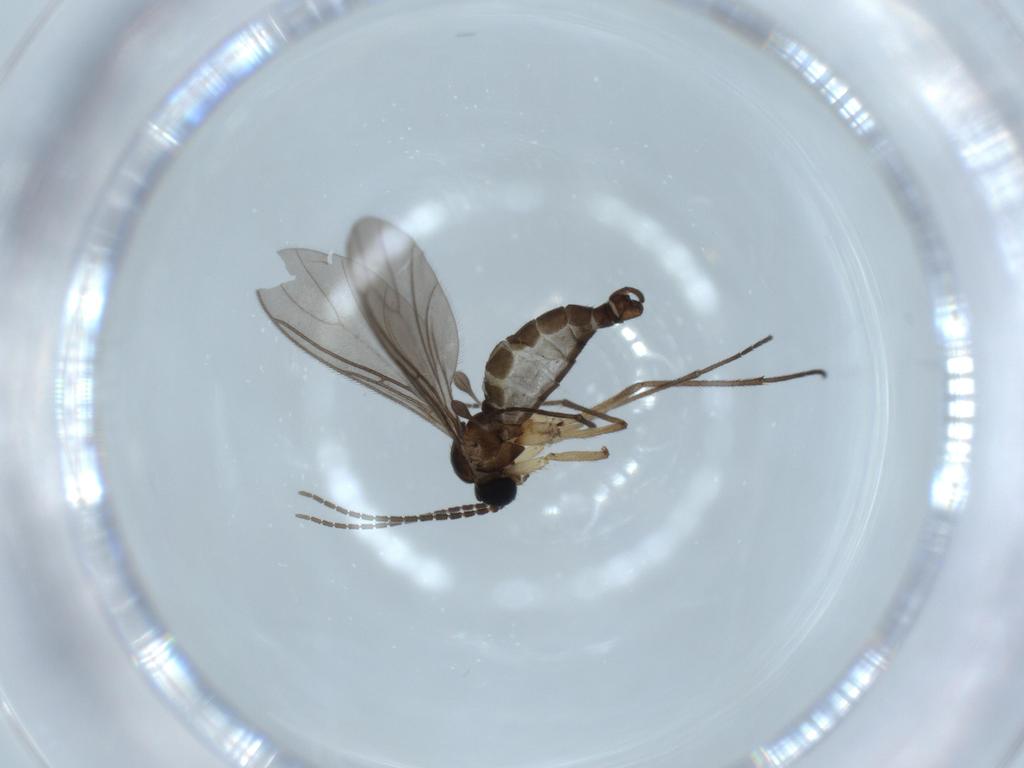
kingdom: Animalia
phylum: Arthropoda
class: Insecta
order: Diptera
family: Sciaridae
